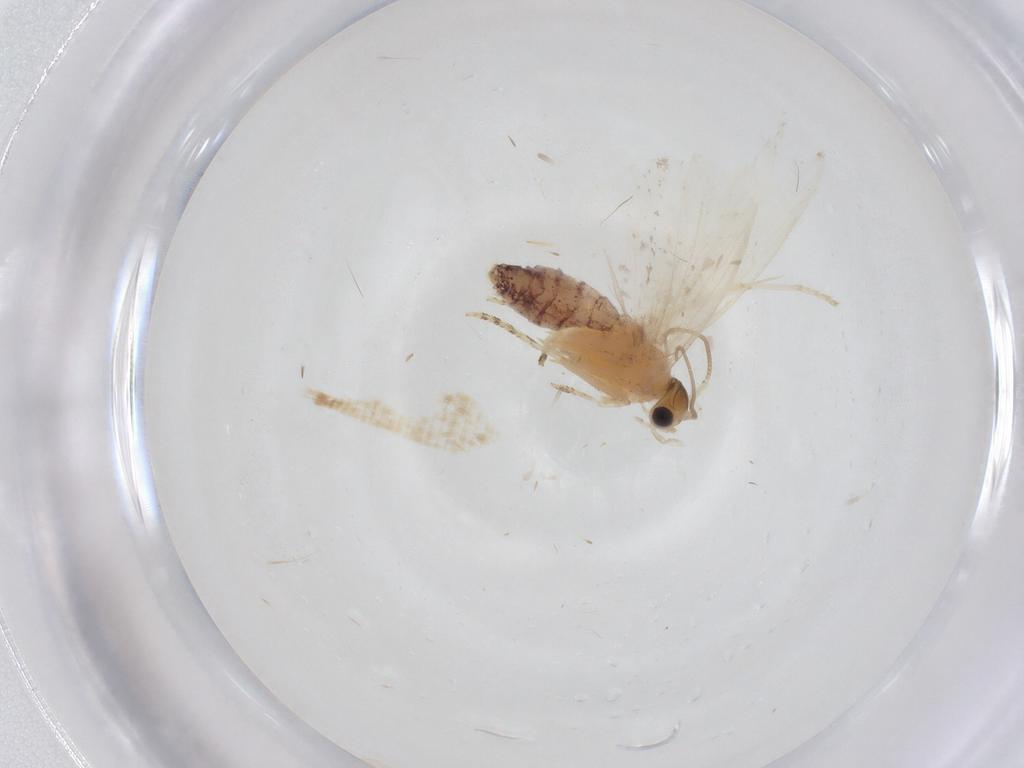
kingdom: Animalia
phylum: Arthropoda
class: Insecta
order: Lepidoptera
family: Tineidae
